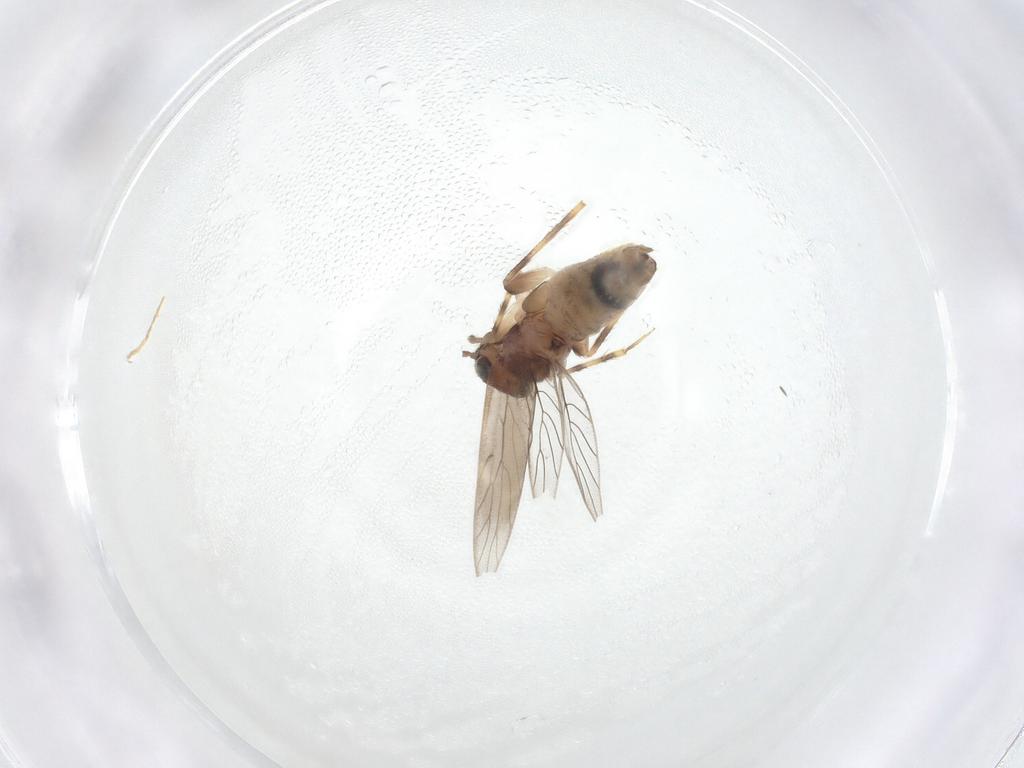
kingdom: Animalia
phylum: Arthropoda
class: Insecta
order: Psocodea
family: Lepidopsocidae
